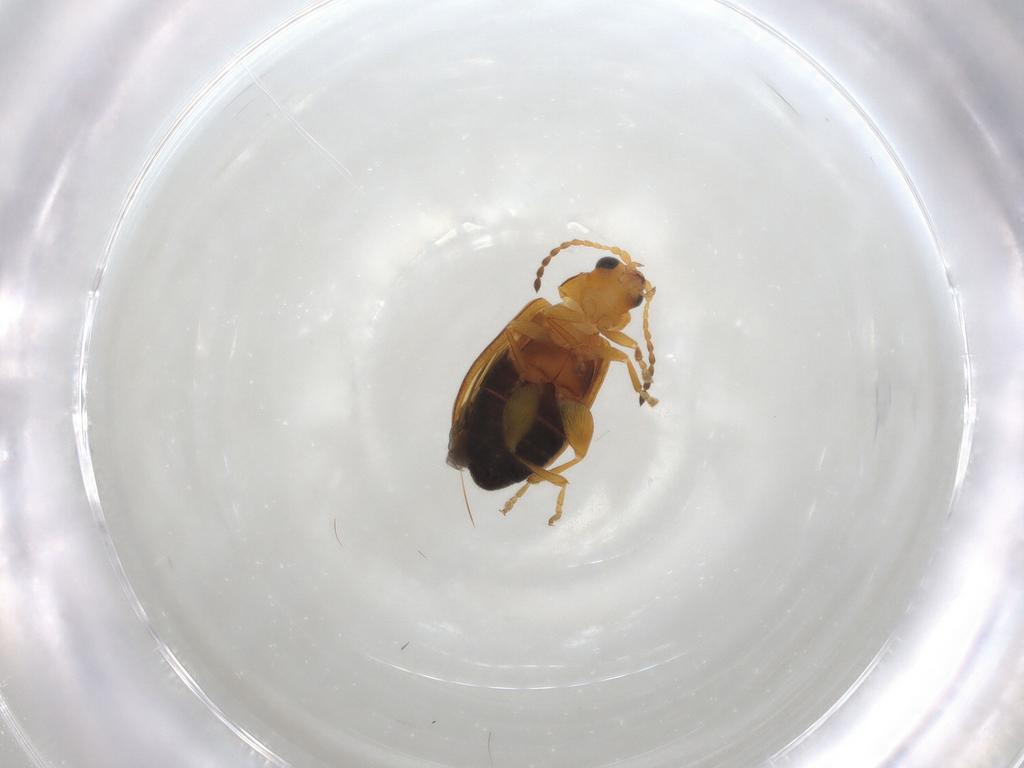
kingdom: Animalia
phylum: Arthropoda
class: Insecta
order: Coleoptera
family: Chrysomelidae
